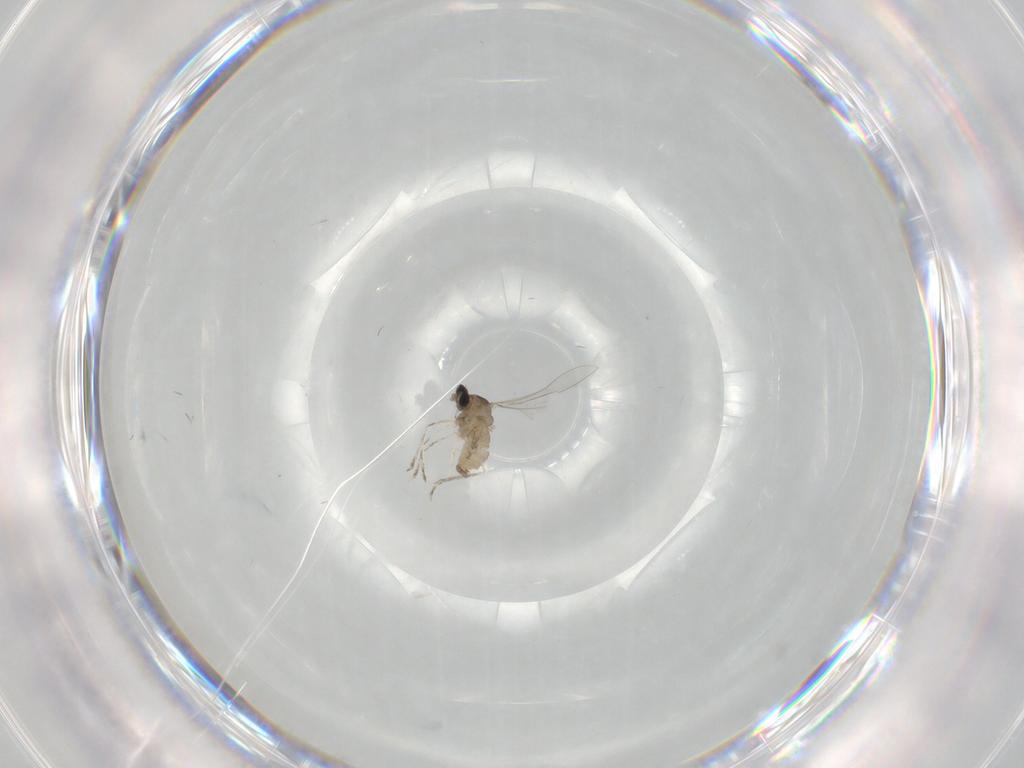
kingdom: Animalia
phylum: Arthropoda
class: Insecta
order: Diptera
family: Cecidomyiidae
